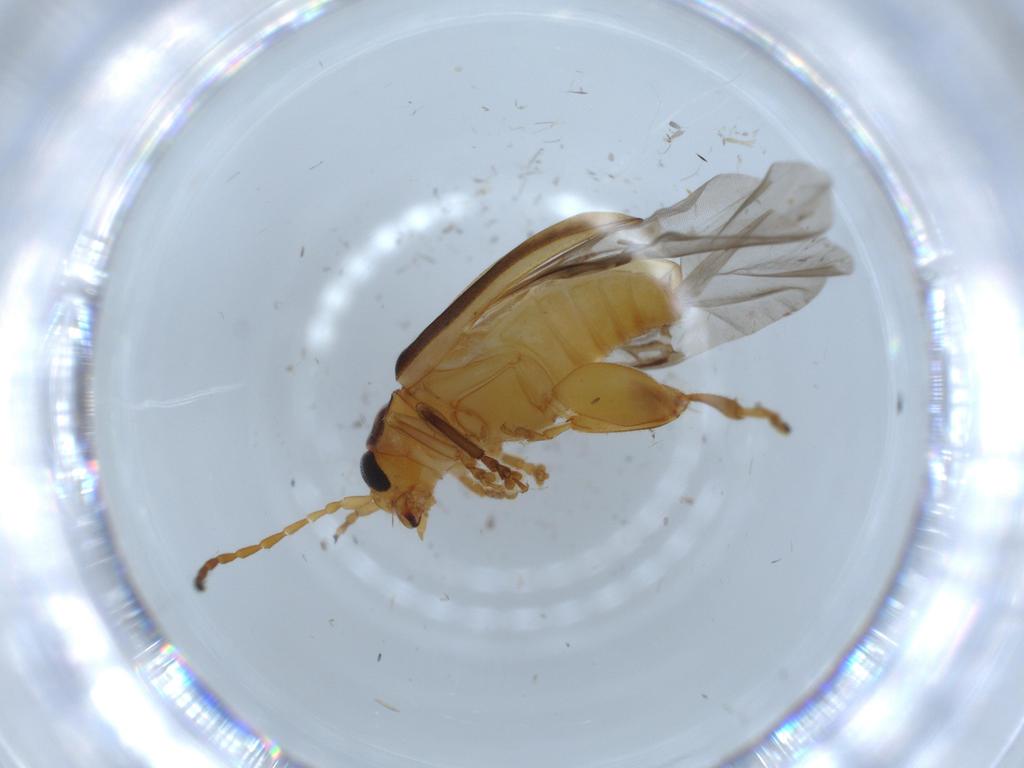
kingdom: Animalia
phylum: Arthropoda
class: Insecta
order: Coleoptera
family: Chrysomelidae
